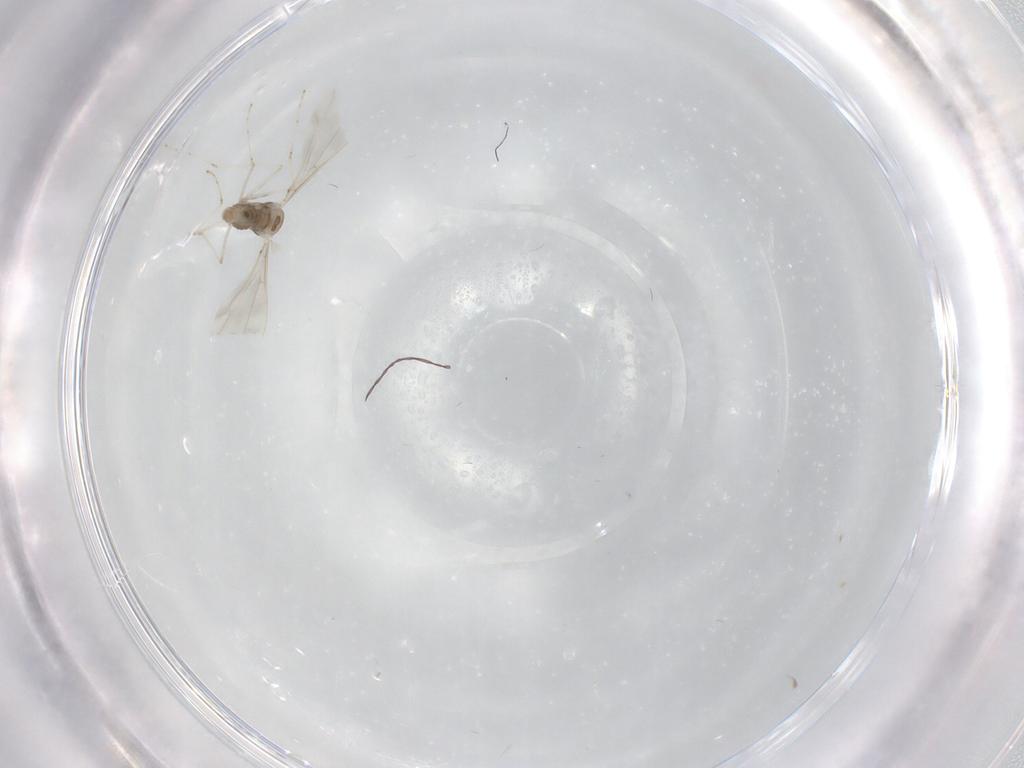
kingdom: Animalia
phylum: Arthropoda
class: Insecta
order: Diptera
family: Cecidomyiidae
